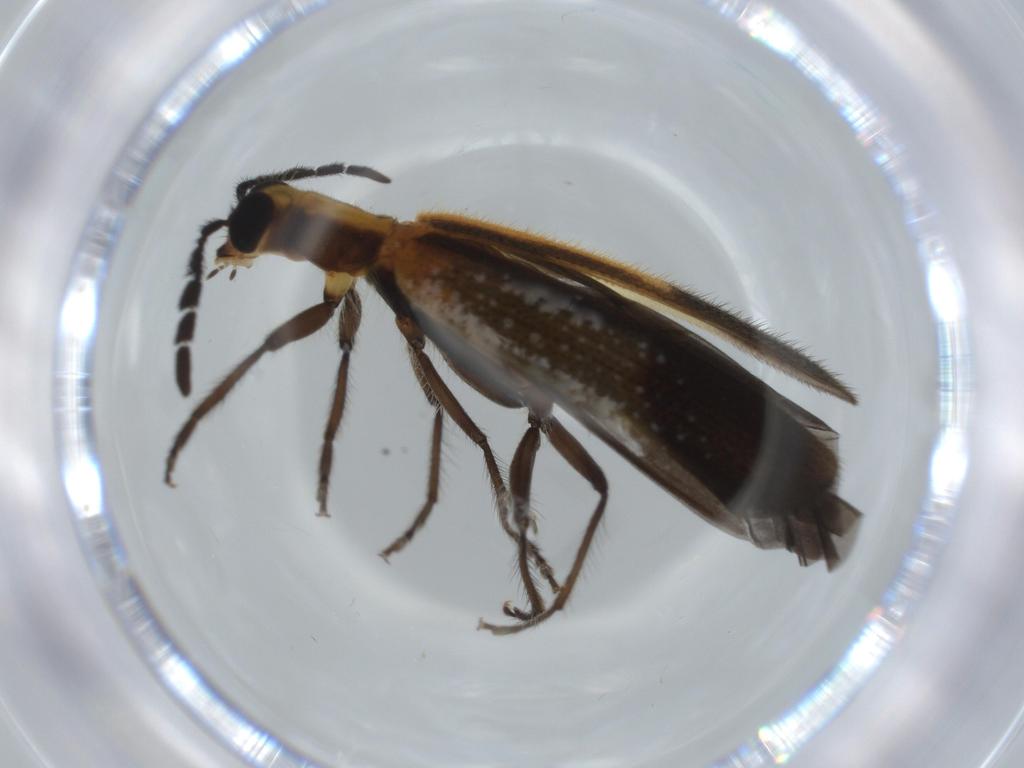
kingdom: Animalia
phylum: Arthropoda
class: Insecta
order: Coleoptera
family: Cleridae
